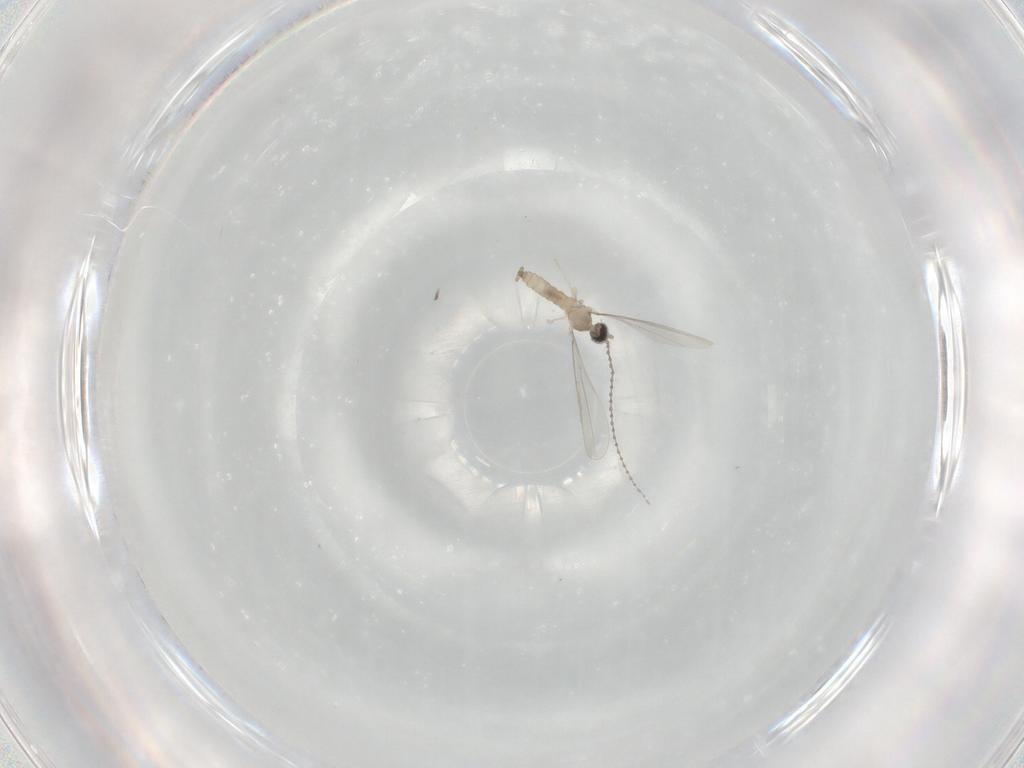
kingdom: Animalia
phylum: Arthropoda
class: Insecta
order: Diptera
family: Cecidomyiidae
